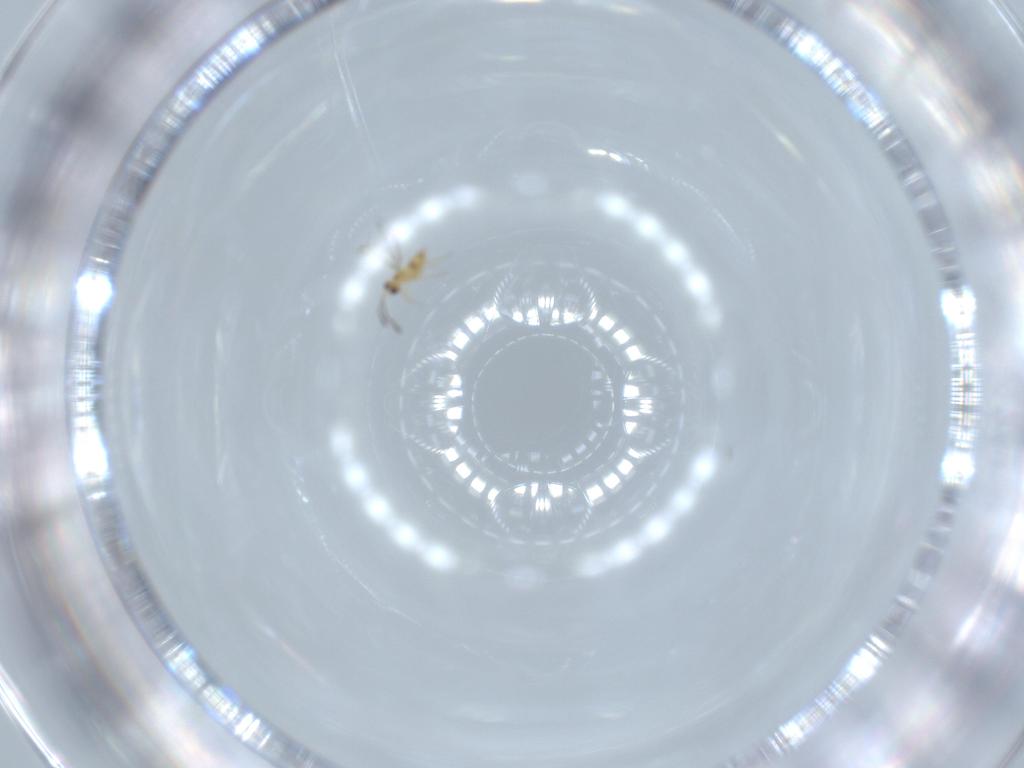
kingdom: Animalia
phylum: Arthropoda
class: Insecta
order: Hymenoptera
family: Mymaridae
